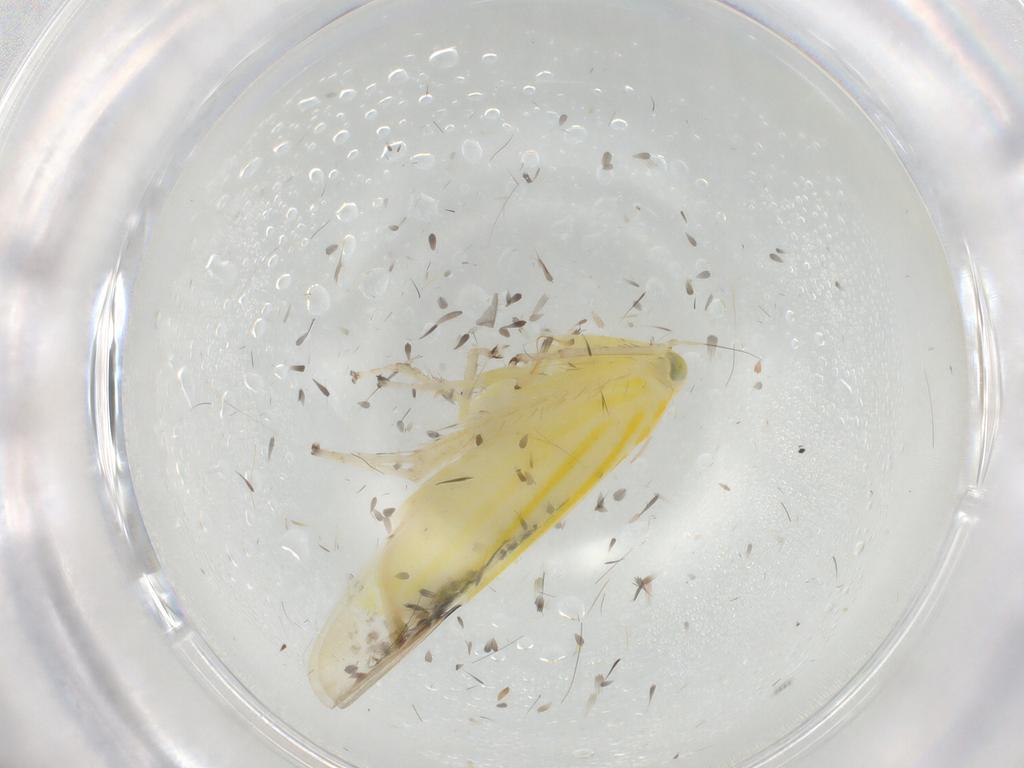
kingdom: Animalia
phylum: Arthropoda
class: Insecta
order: Hemiptera
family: Cicadellidae
